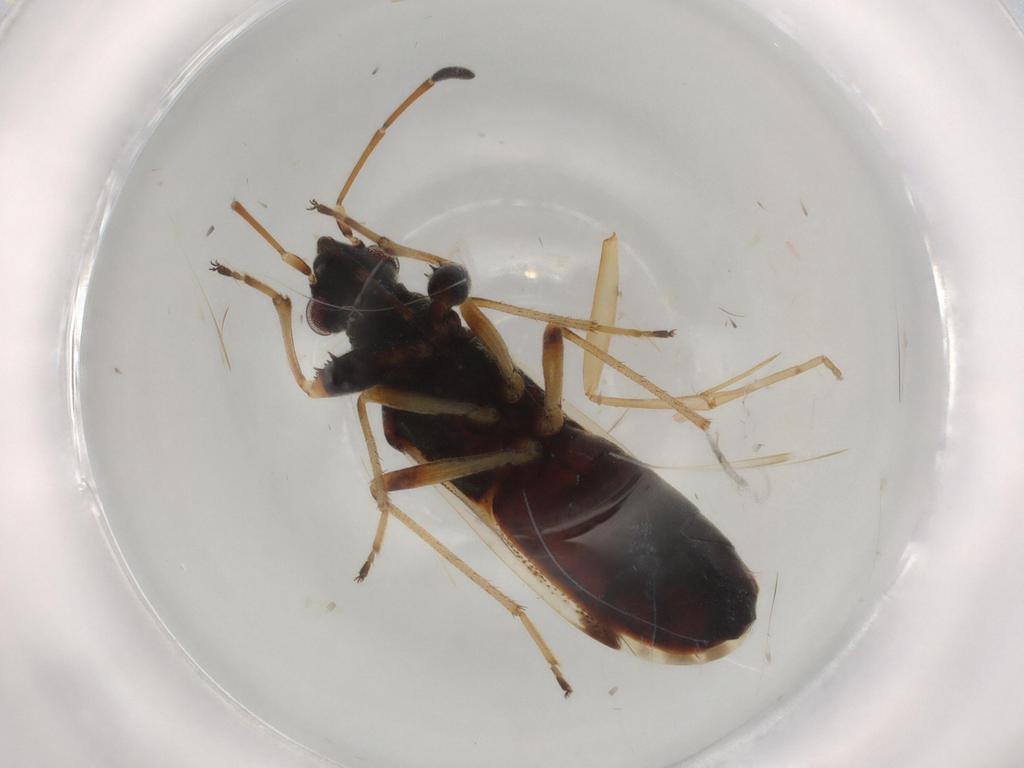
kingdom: Animalia
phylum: Arthropoda
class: Insecta
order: Hemiptera
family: Rhyparochromidae
